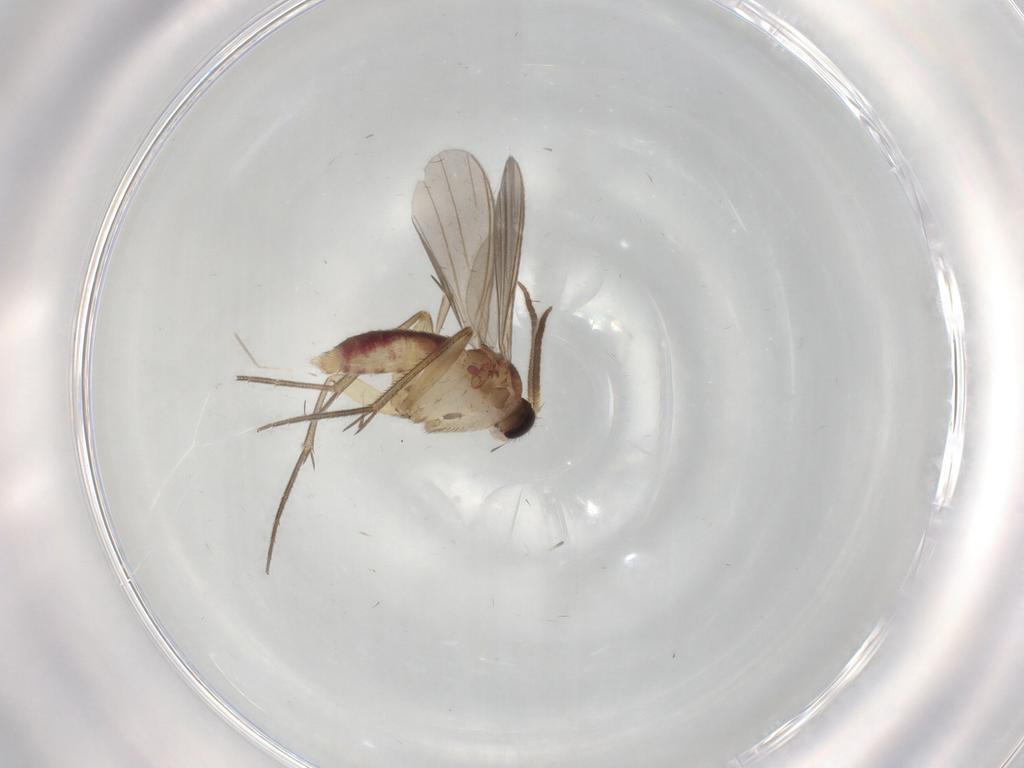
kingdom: Animalia
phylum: Arthropoda
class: Insecta
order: Diptera
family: Mycetophilidae
